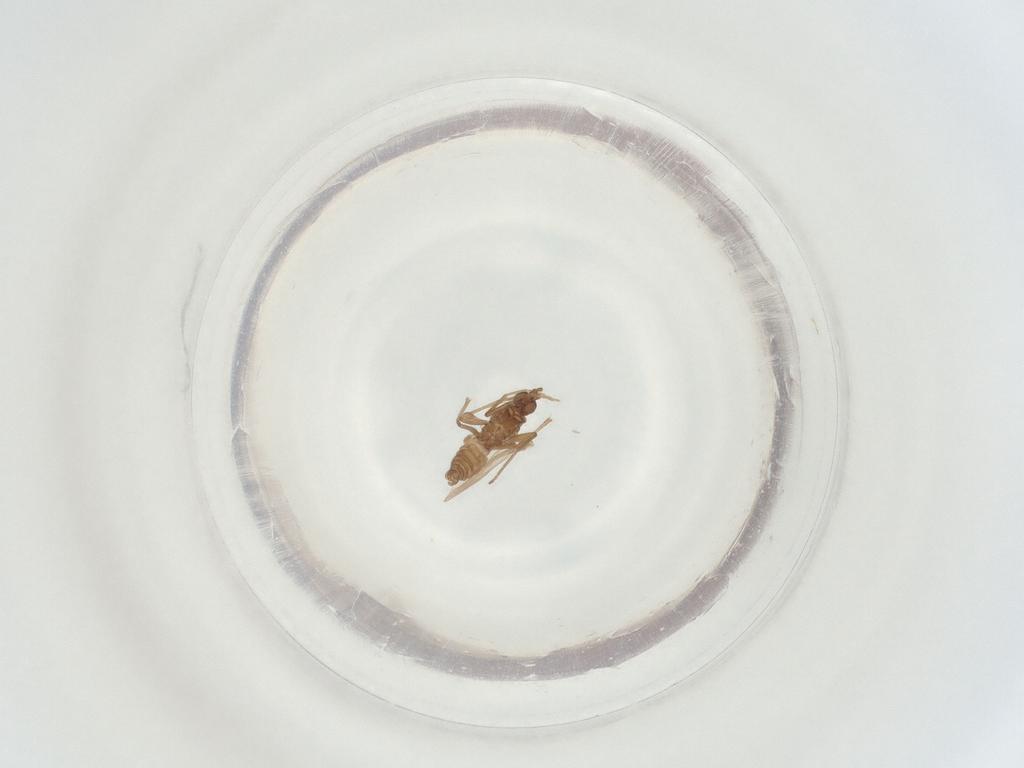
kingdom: Animalia
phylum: Arthropoda
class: Insecta
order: Diptera
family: Sciaridae
